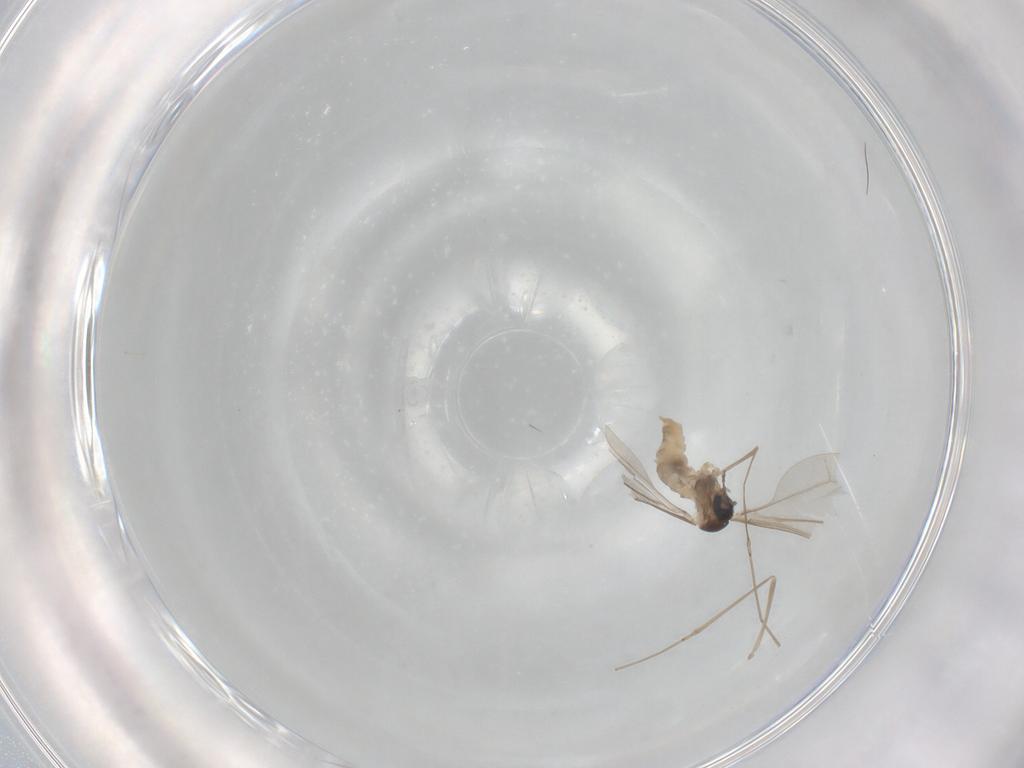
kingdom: Animalia
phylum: Arthropoda
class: Insecta
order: Diptera
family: Cecidomyiidae
